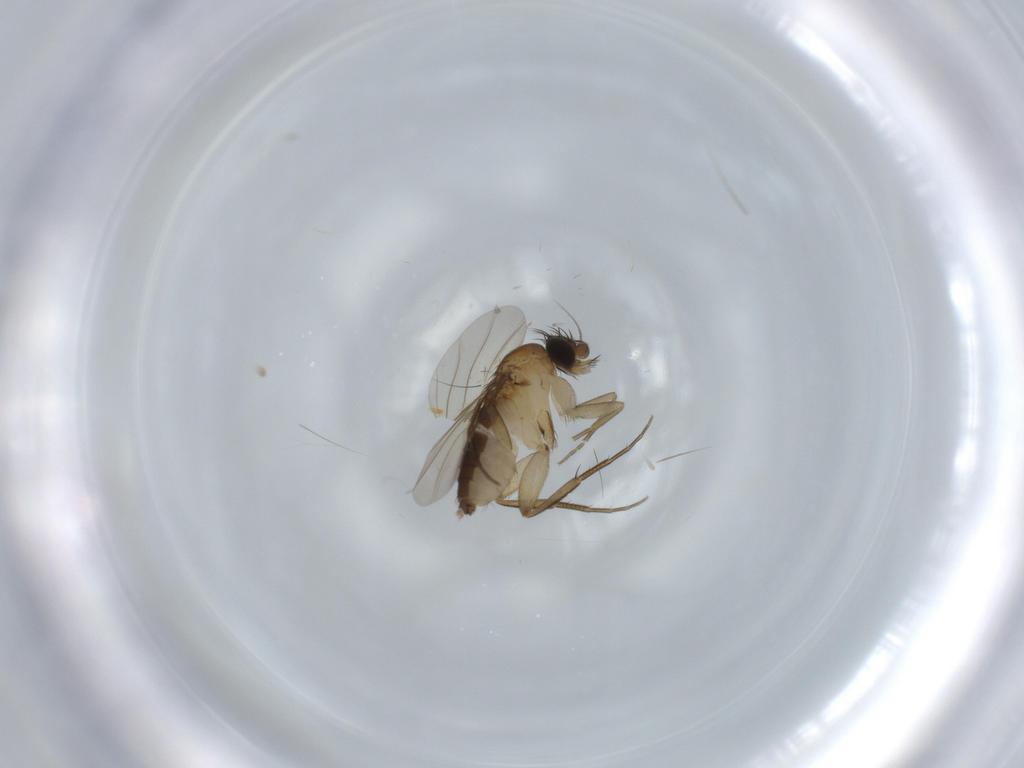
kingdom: Animalia
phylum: Arthropoda
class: Insecta
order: Diptera
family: Phoridae
